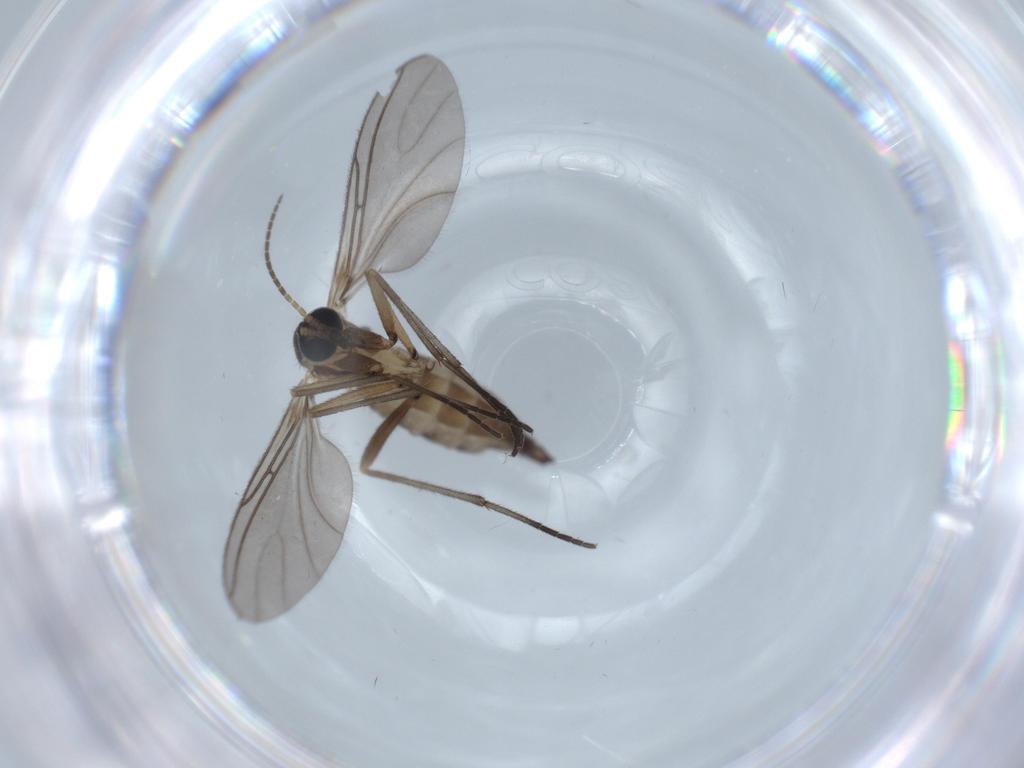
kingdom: Animalia
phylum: Arthropoda
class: Insecta
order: Diptera
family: Sciaridae
